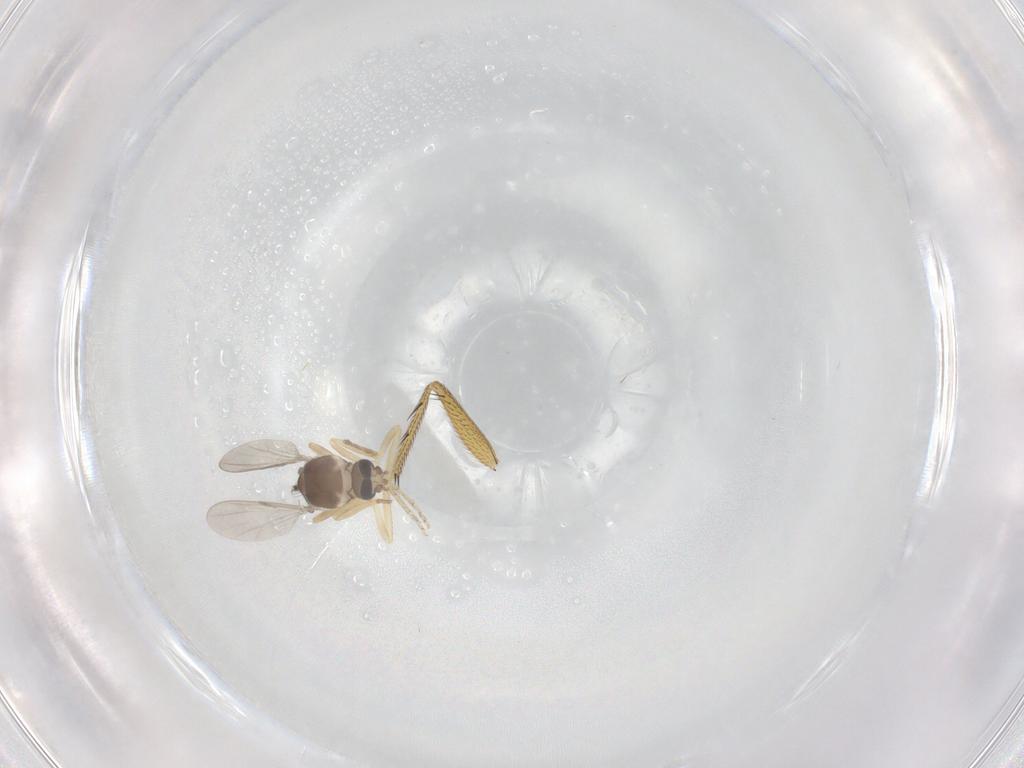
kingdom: Animalia
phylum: Arthropoda
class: Insecta
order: Diptera
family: Ceratopogonidae
